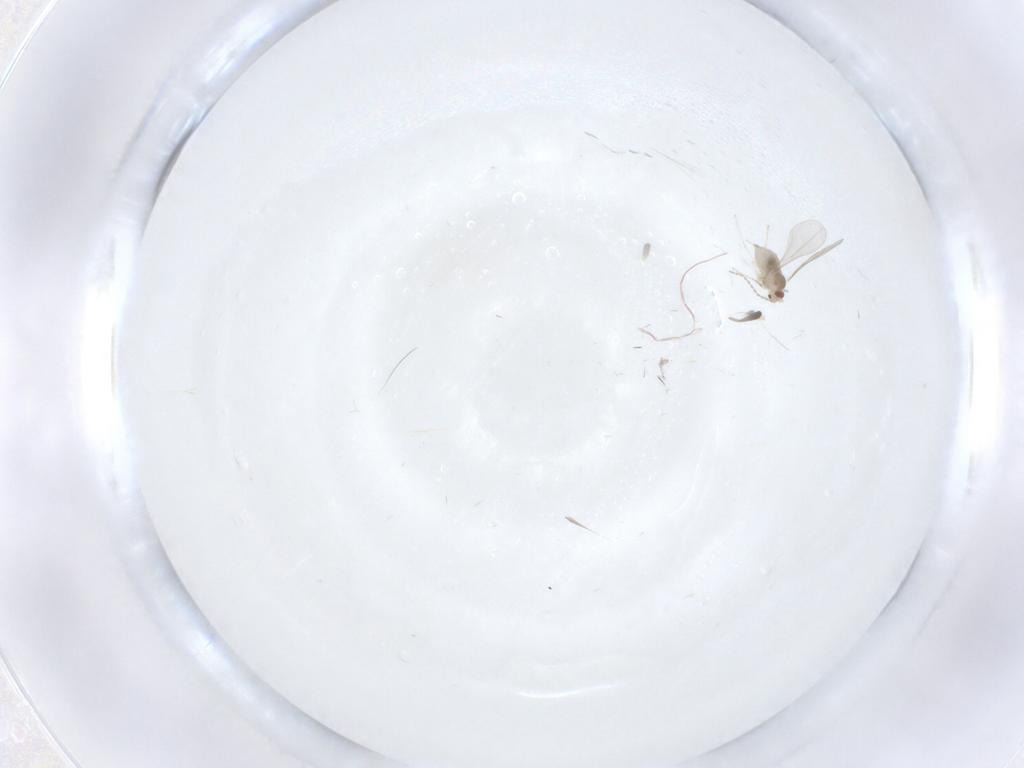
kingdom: Animalia
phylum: Arthropoda
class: Insecta
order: Diptera
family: Cecidomyiidae
